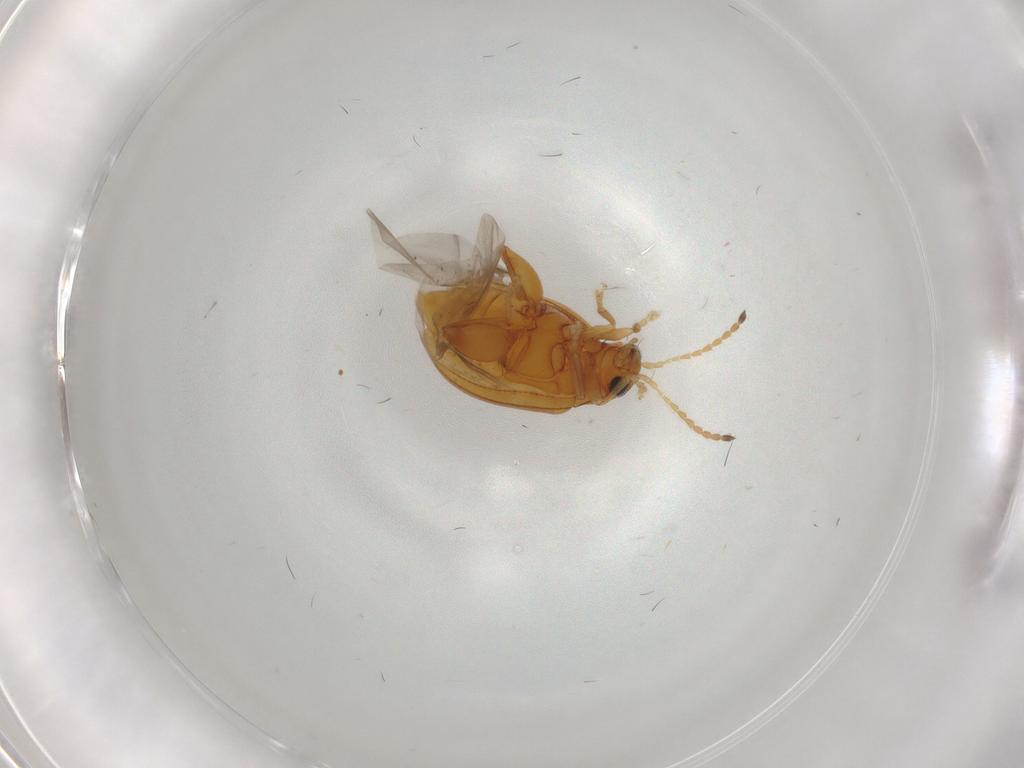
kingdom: Animalia
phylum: Arthropoda
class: Insecta
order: Coleoptera
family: Chrysomelidae
